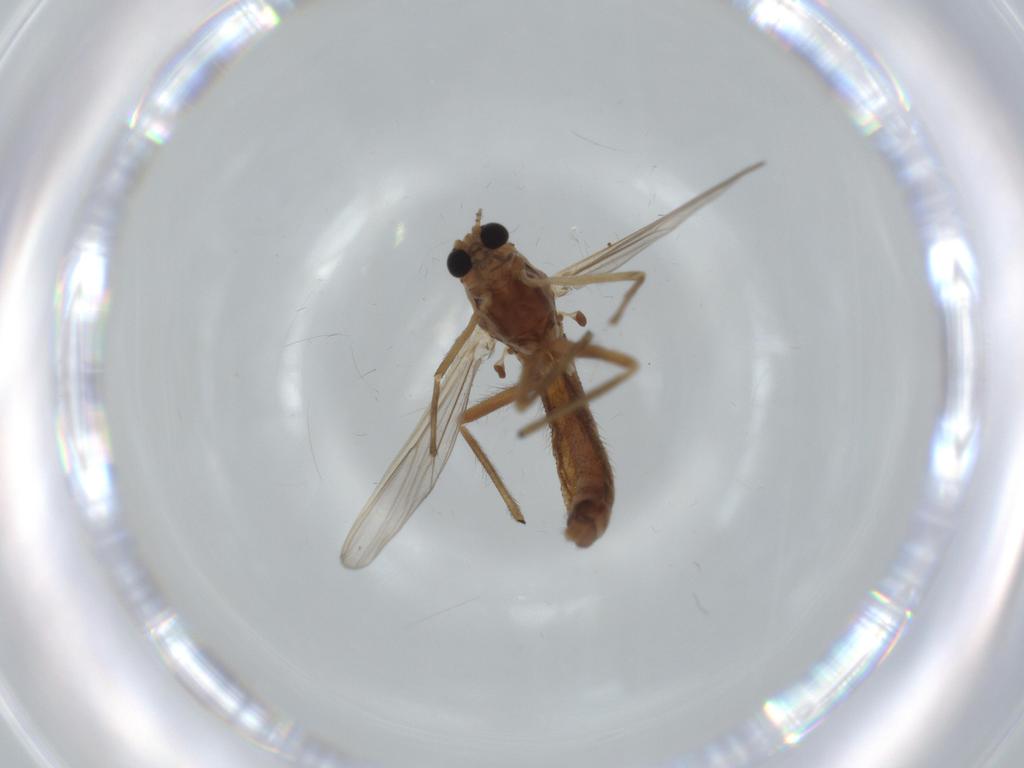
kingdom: Animalia
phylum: Arthropoda
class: Insecta
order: Diptera
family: Chironomidae
